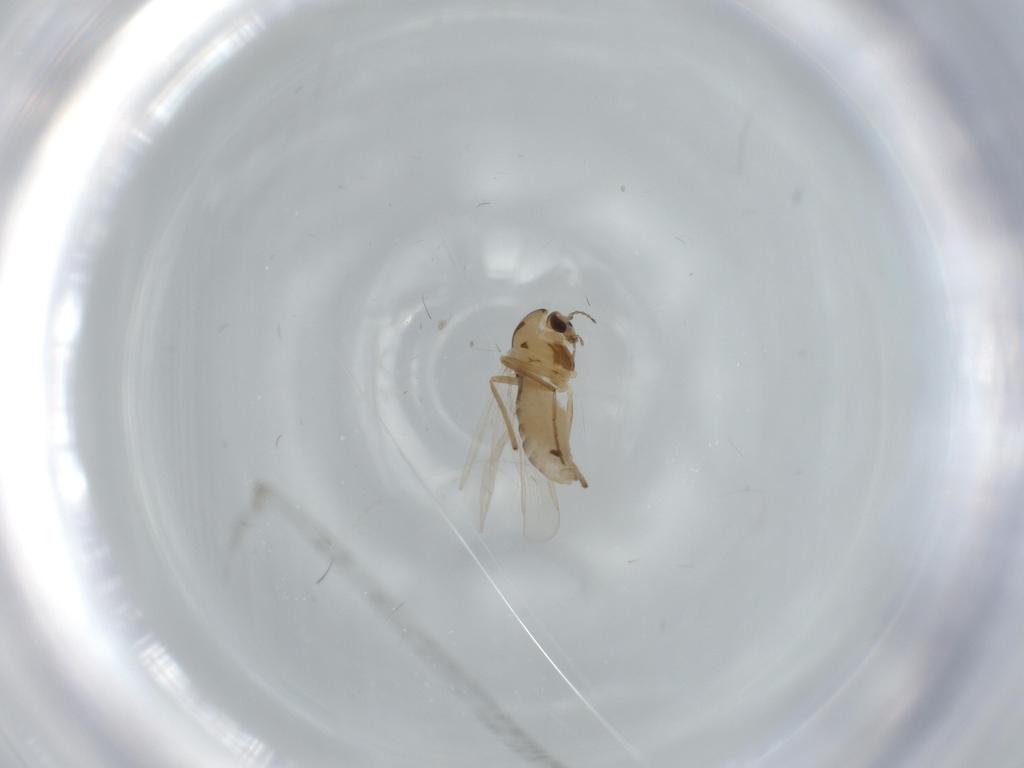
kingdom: Animalia
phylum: Arthropoda
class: Insecta
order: Diptera
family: Chironomidae
